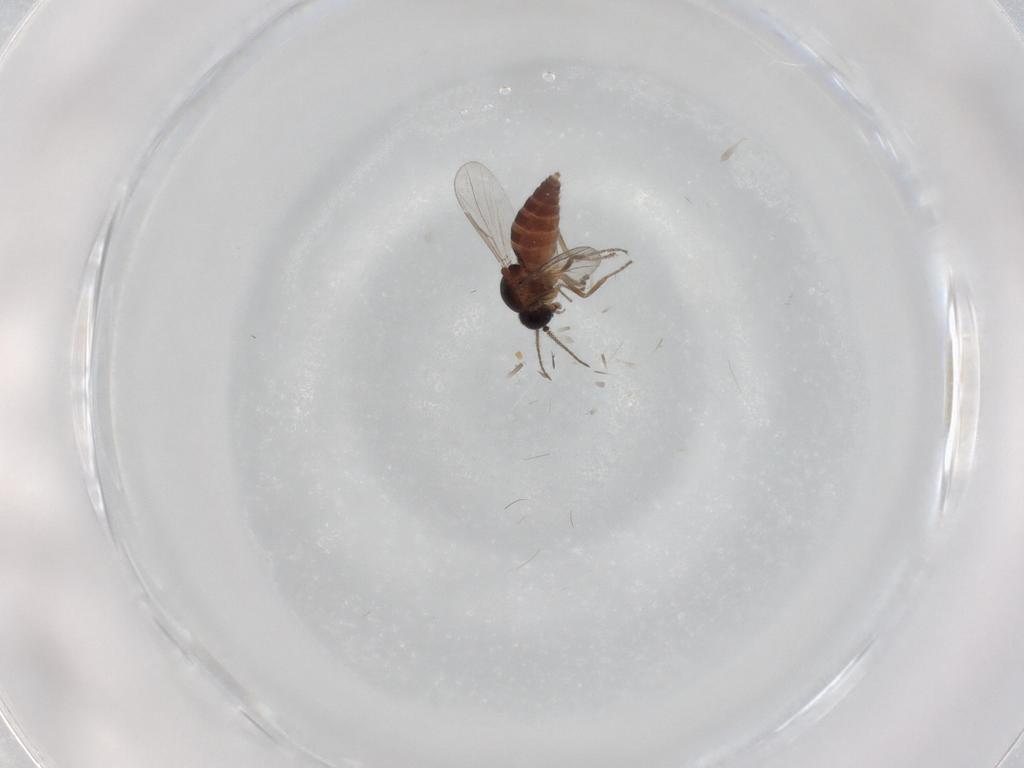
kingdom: Animalia
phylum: Arthropoda
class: Insecta
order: Diptera
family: Ceratopogonidae
